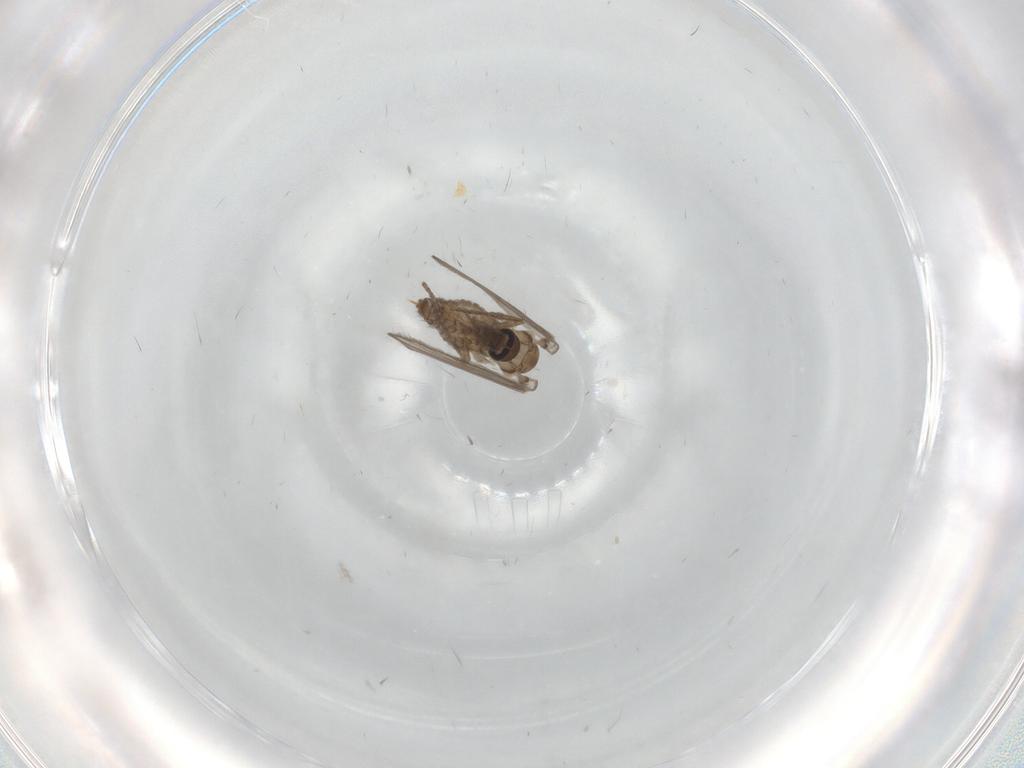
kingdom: Animalia
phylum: Arthropoda
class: Insecta
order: Diptera
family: Psychodidae
